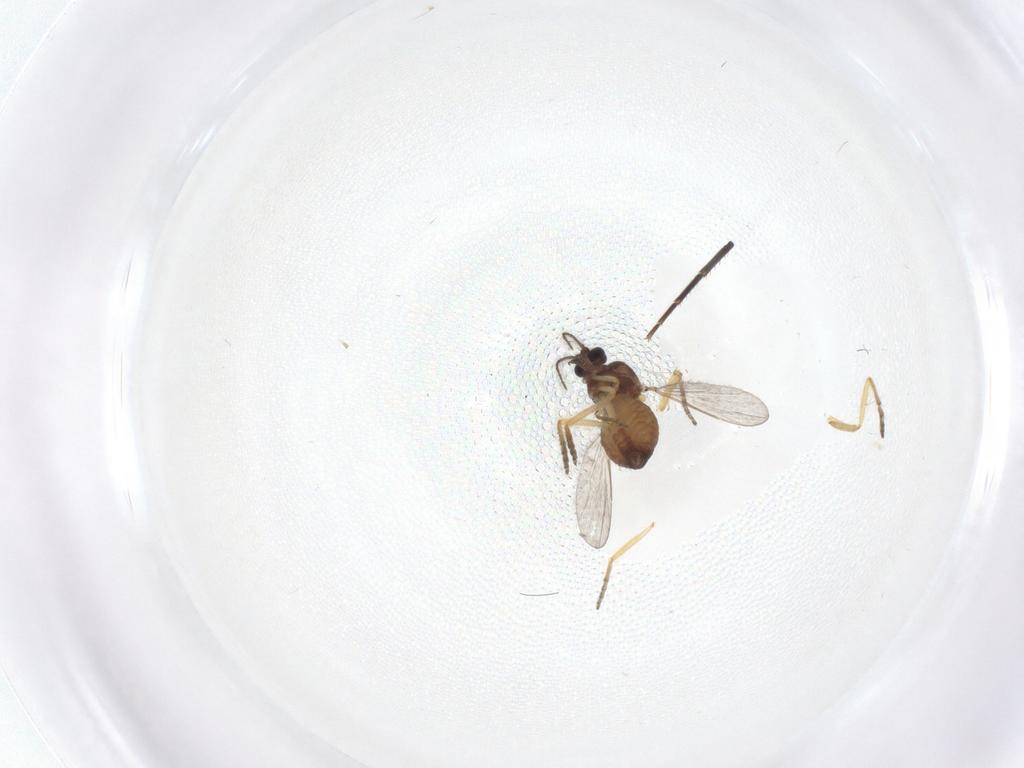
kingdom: Animalia
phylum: Arthropoda
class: Insecta
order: Diptera
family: Ceratopogonidae
